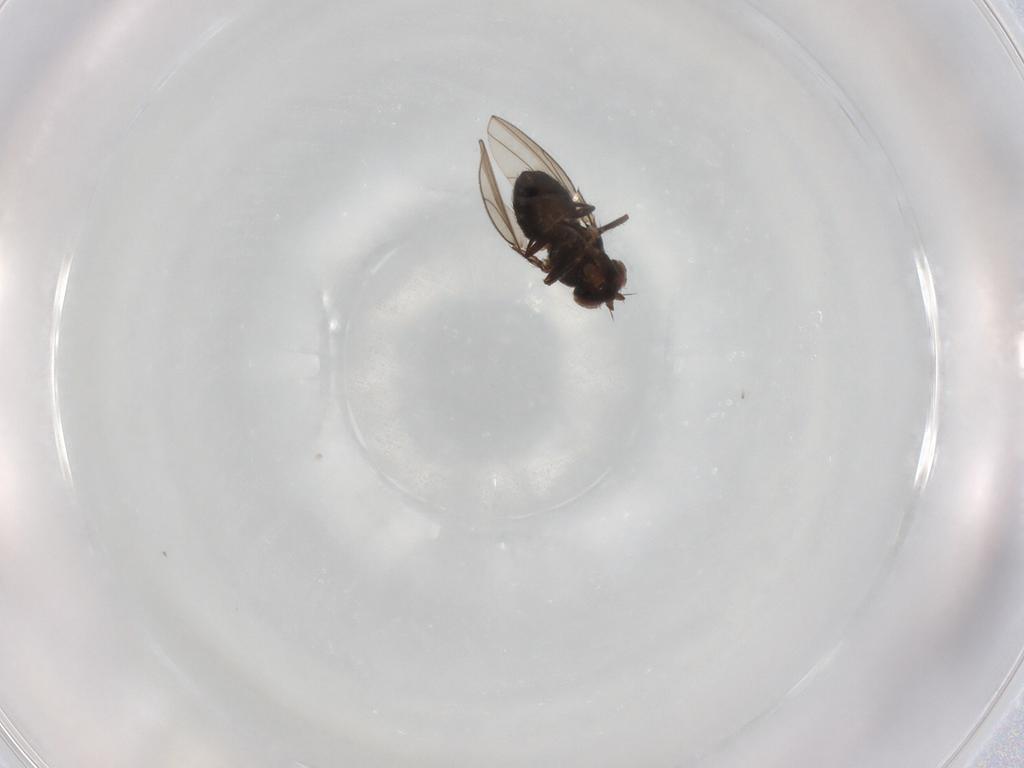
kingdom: Animalia
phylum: Arthropoda
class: Insecta
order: Diptera
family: Ephydridae
